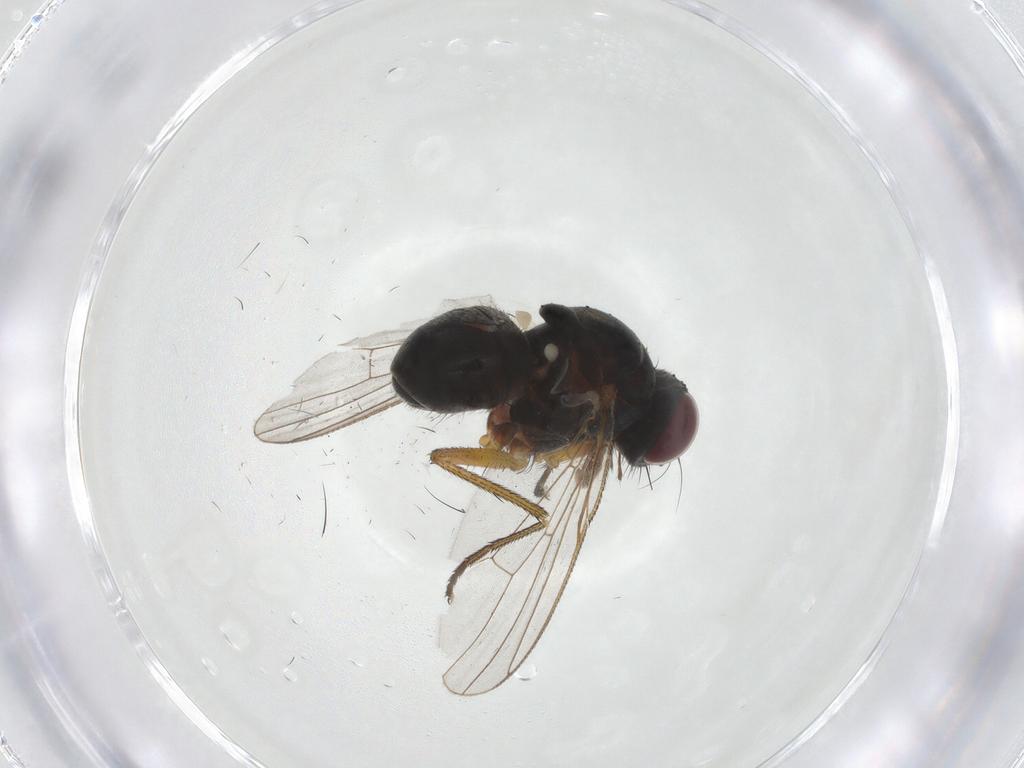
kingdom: Animalia
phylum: Arthropoda
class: Insecta
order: Diptera
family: Muscidae
